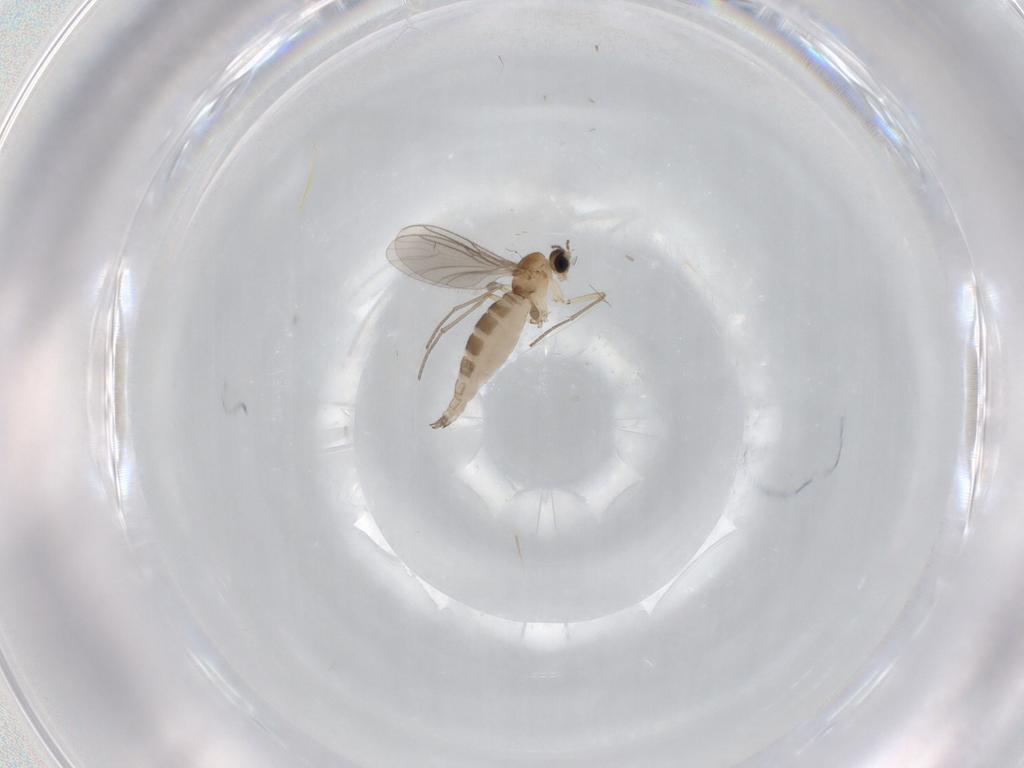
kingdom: Animalia
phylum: Arthropoda
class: Insecta
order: Diptera
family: Sciaridae
